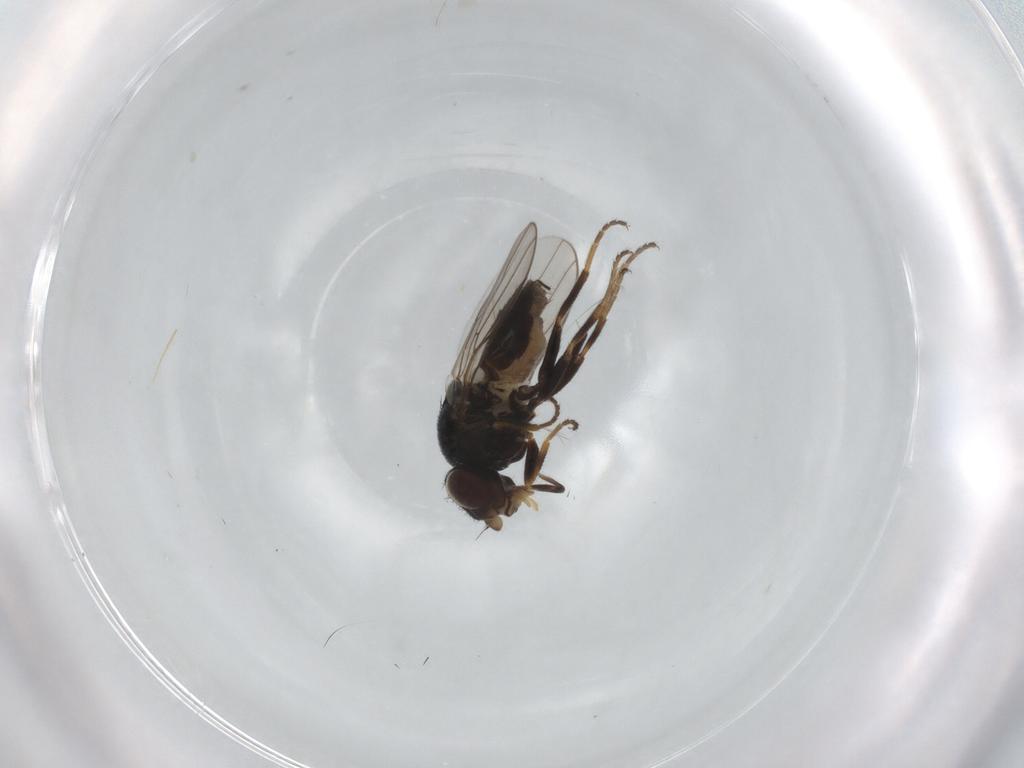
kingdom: Animalia
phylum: Arthropoda
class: Insecta
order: Diptera
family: Chloropidae
